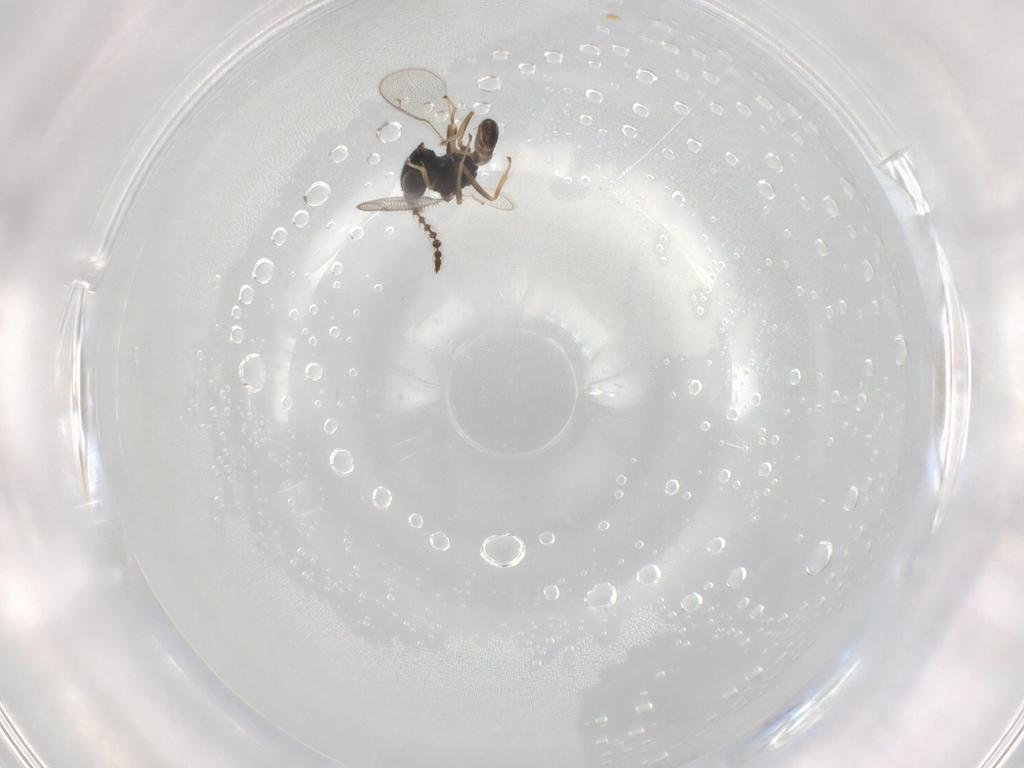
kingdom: Animalia
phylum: Arthropoda
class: Insecta
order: Hymenoptera
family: Pteromalidae
